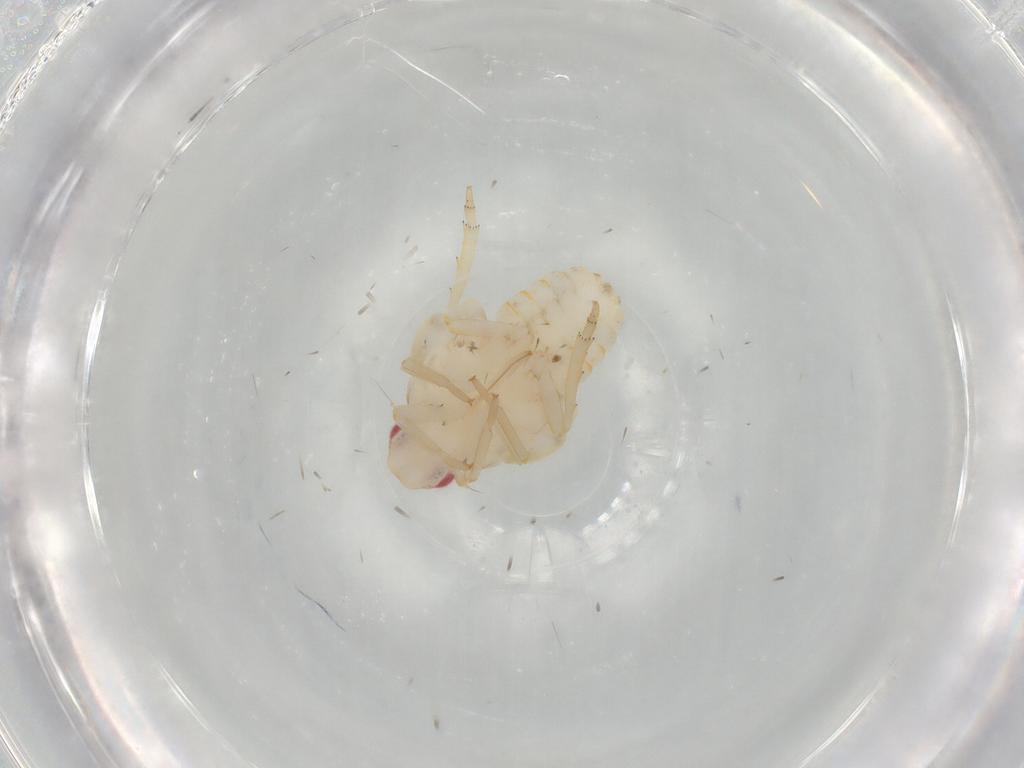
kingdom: Animalia
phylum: Arthropoda
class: Insecta
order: Hemiptera
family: Flatidae
